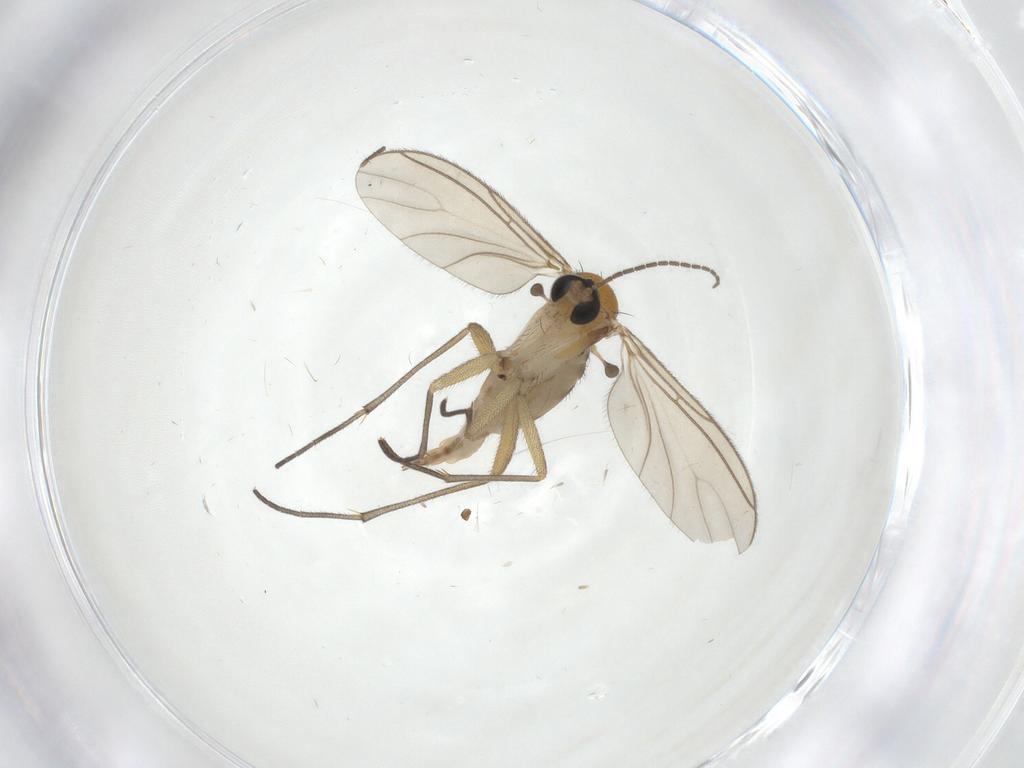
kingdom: Animalia
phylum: Arthropoda
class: Insecta
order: Diptera
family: Sciaridae
